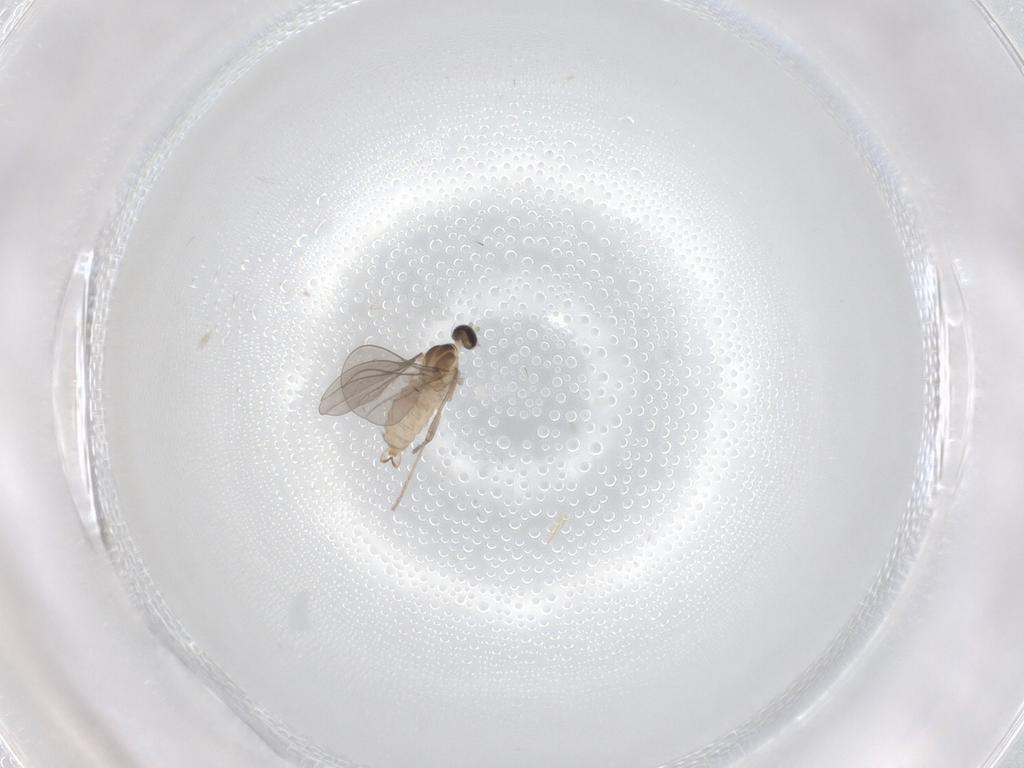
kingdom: Animalia
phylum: Arthropoda
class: Insecta
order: Diptera
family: Cecidomyiidae
